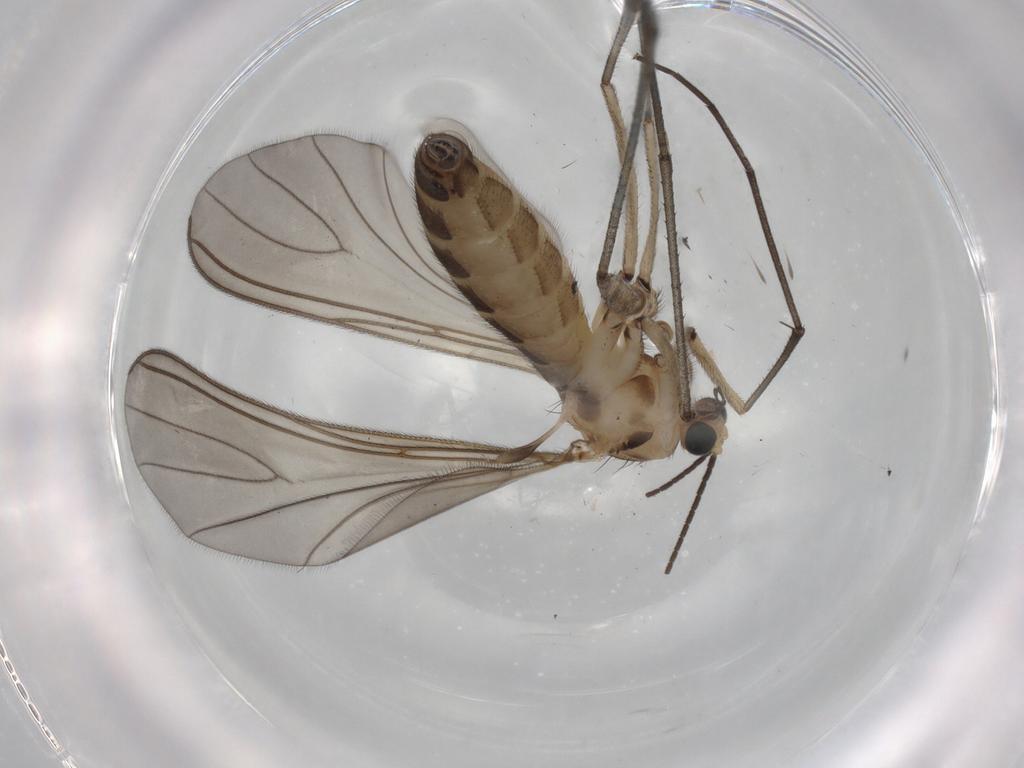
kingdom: Animalia
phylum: Arthropoda
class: Insecta
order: Diptera
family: Sciaridae
